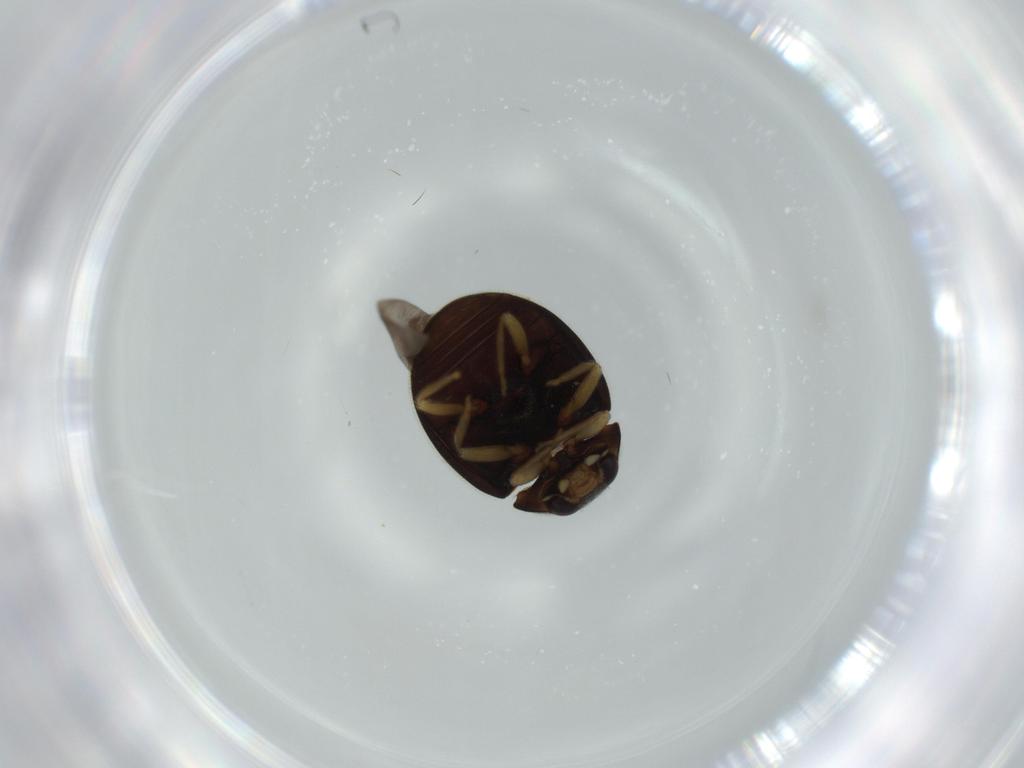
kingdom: Animalia
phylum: Arthropoda
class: Insecta
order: Coleoptera
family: Coccinellidae
